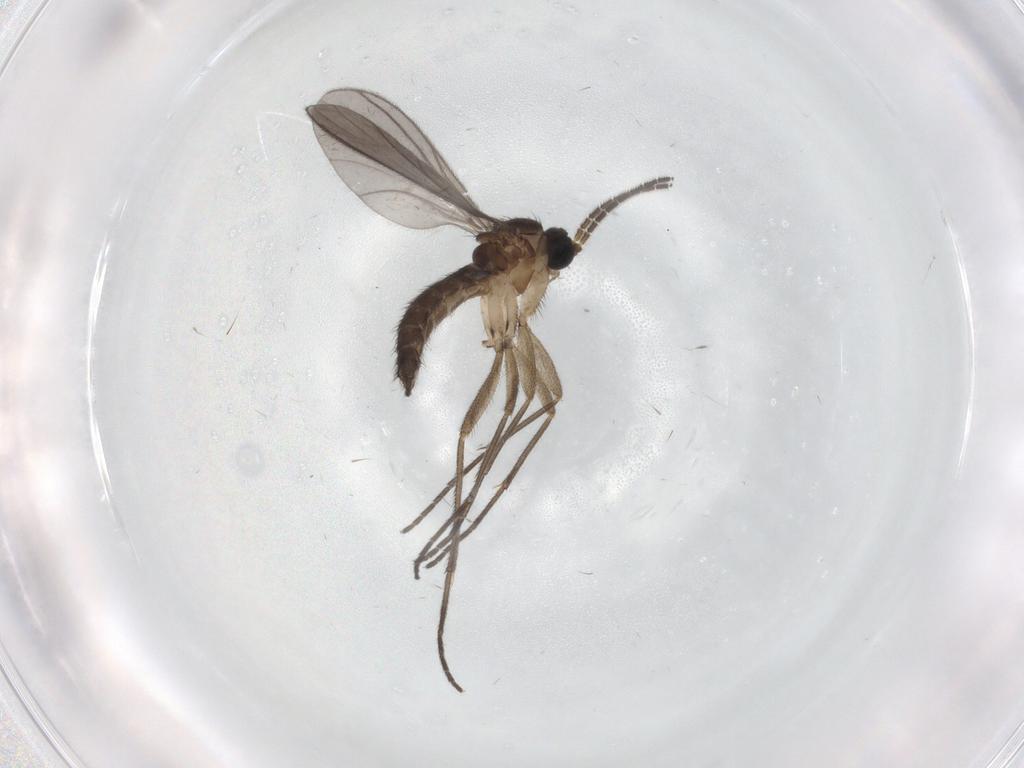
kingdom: Animalia
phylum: Arthropoda
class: Insecta
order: Diptera
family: Sciaridae
